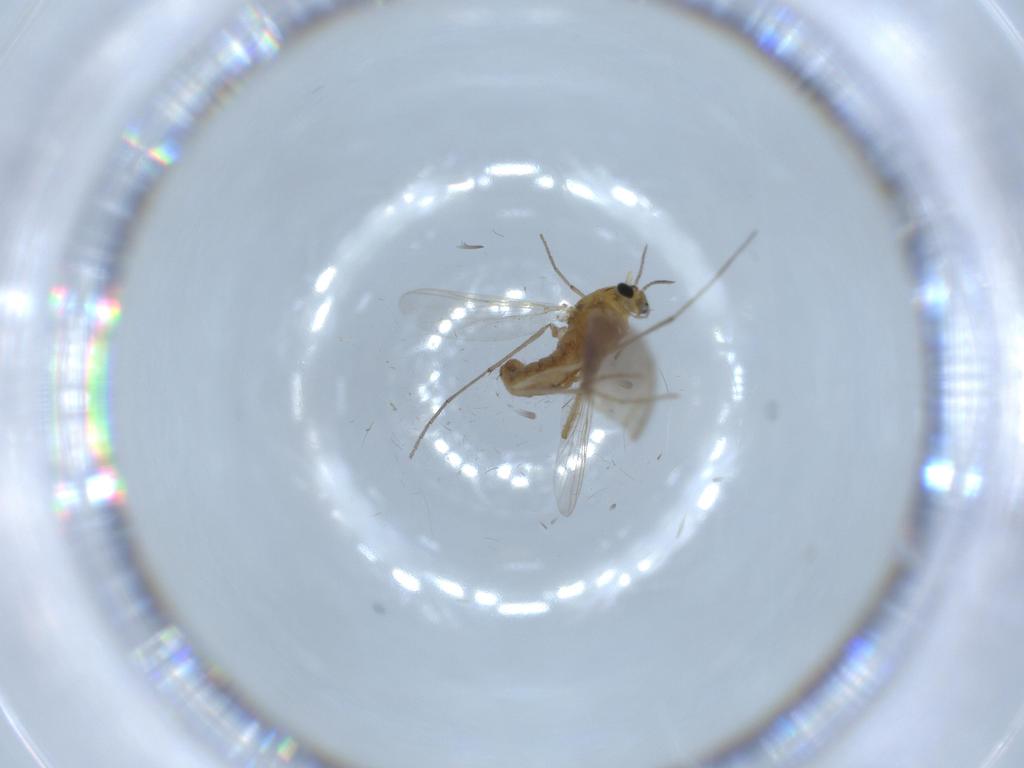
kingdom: Animalia
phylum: Arthropoda
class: Insecta
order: Diptera
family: Chironomidae
